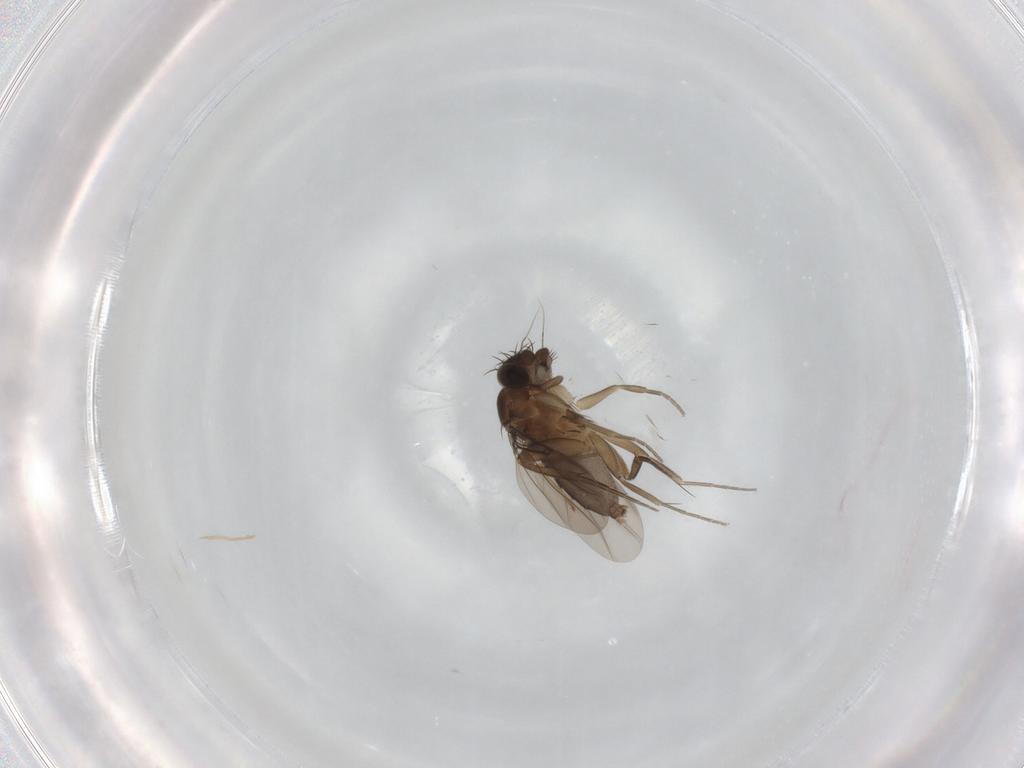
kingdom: Animalia
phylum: Arthropoda
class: Insecta
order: Diptera
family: Phoridae
